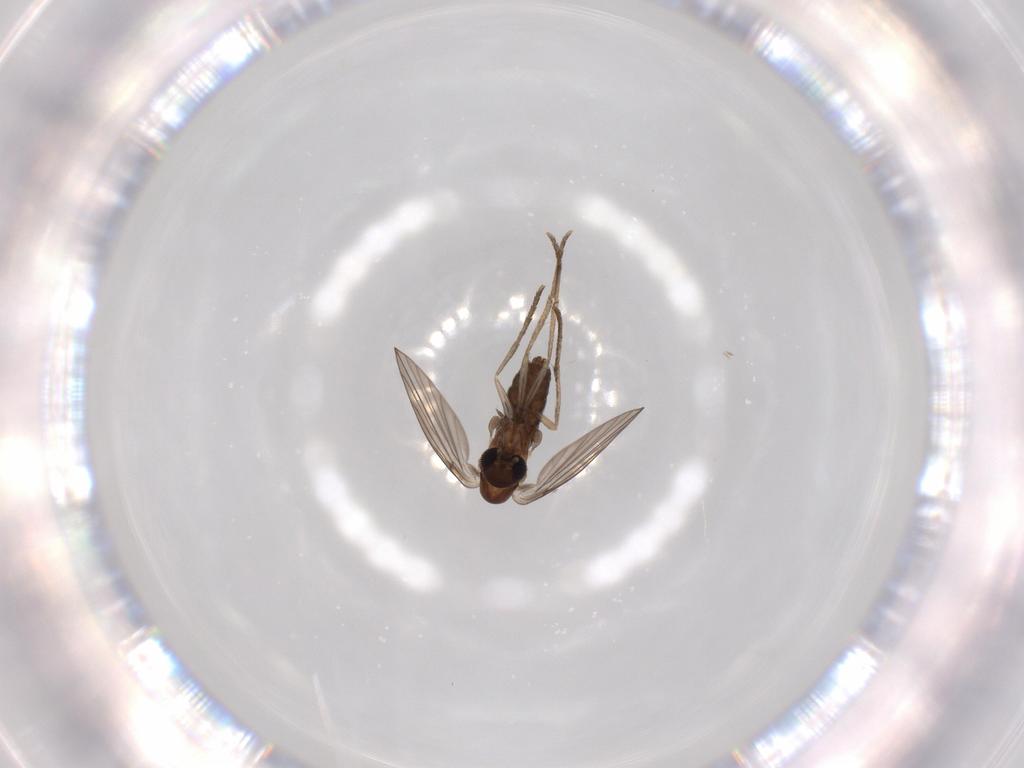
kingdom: Animalia
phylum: Arthropoda
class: Insecta
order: Diptera
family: Psychodidae
